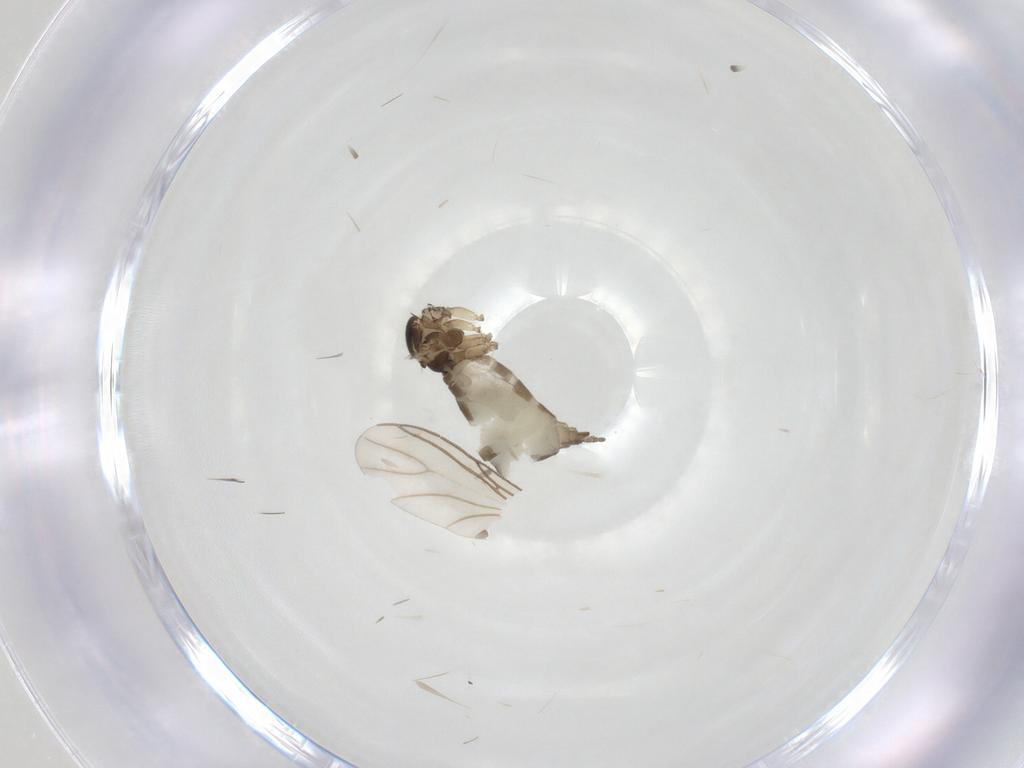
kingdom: Animalia
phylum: Arthropoda
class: Insecta
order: Diptera
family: Sciaridae
